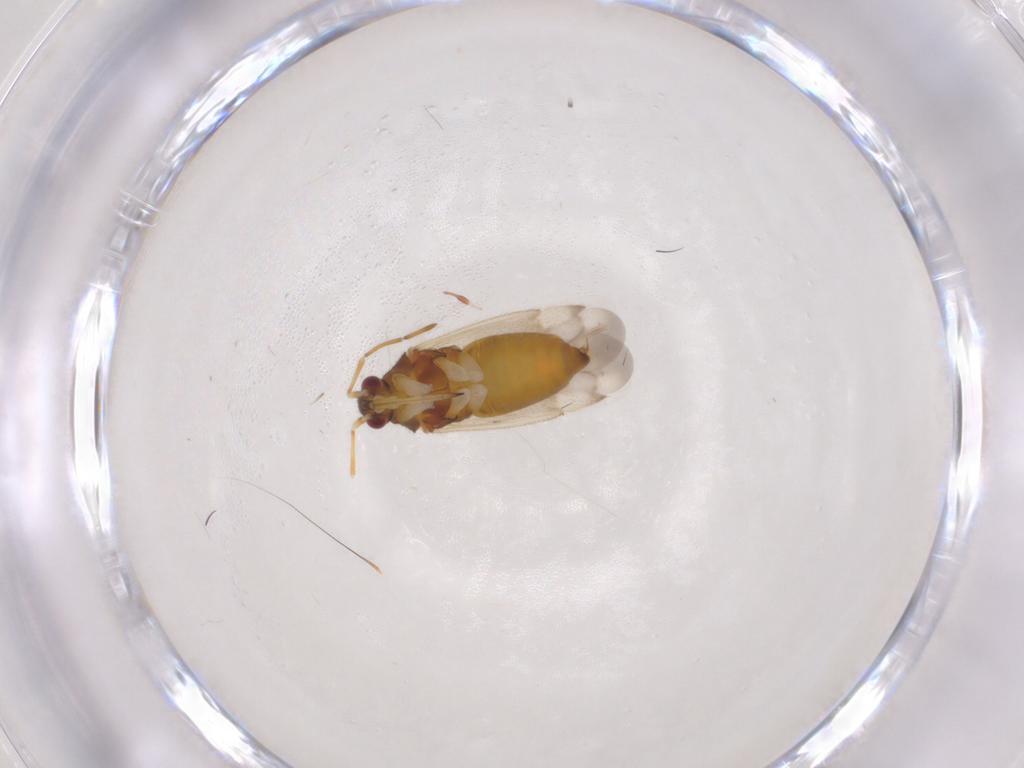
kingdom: Animalia
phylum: Arthropoda
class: Insecta
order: Hemiptera
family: Miridae
